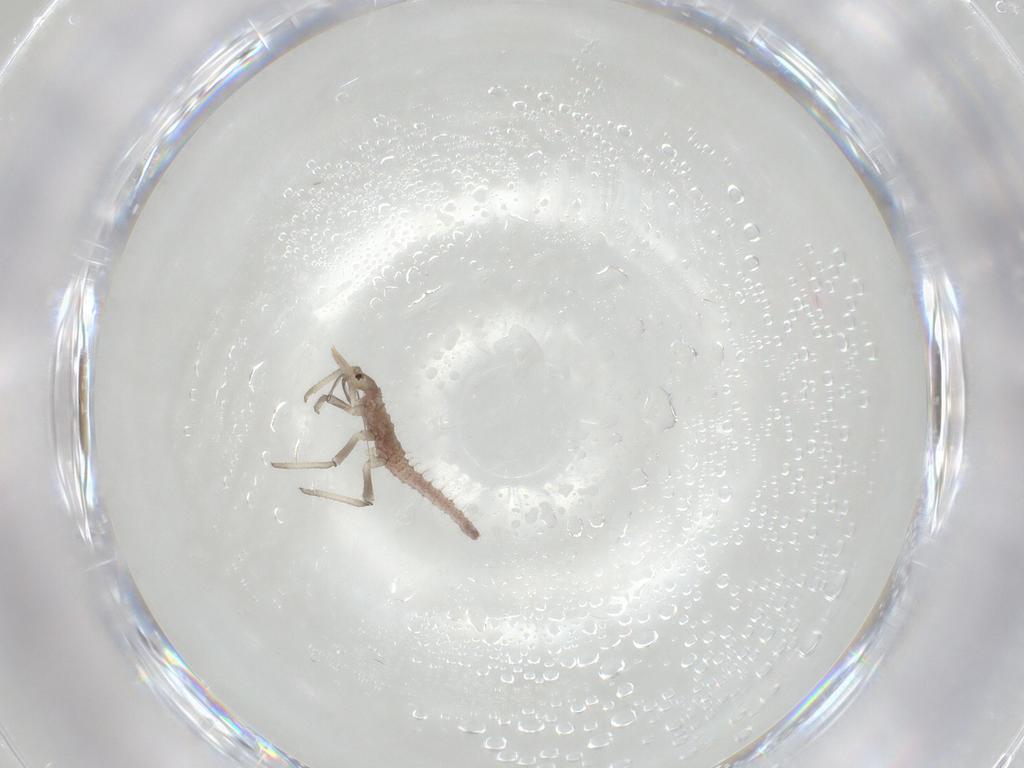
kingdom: Animalia
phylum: Arthropoda
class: Insecta
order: Neuroptera
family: Hemerobiidae
